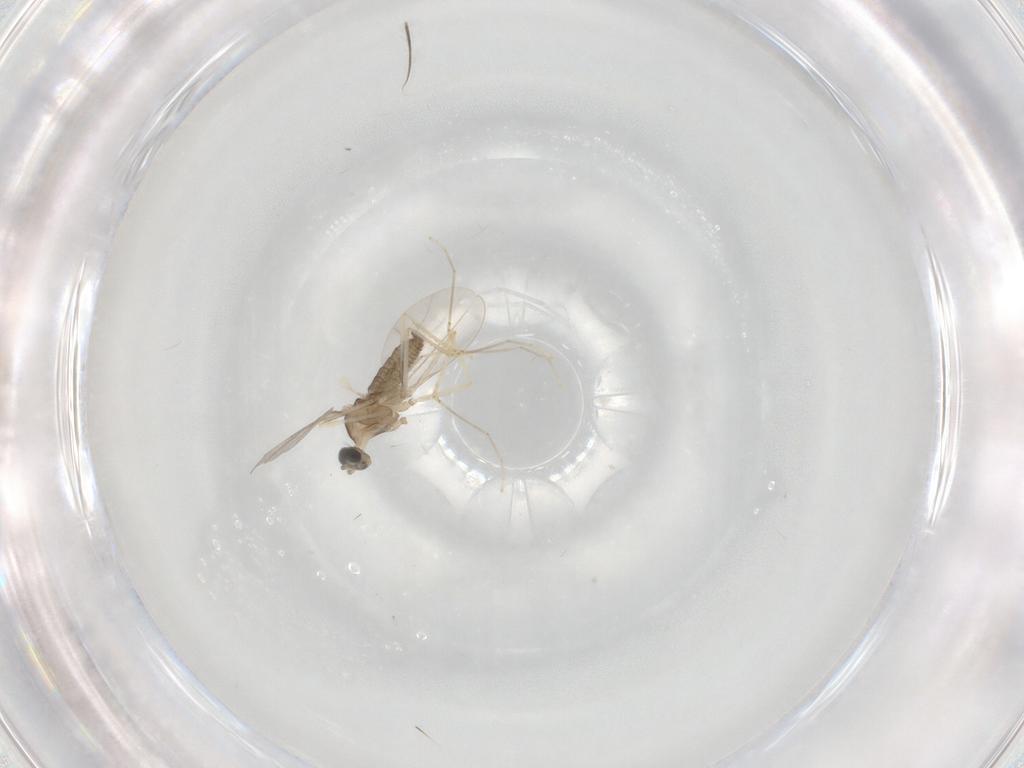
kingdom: Animalia
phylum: Arthropoda
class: Insecta
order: Diptera
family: Cecidomyiidae
